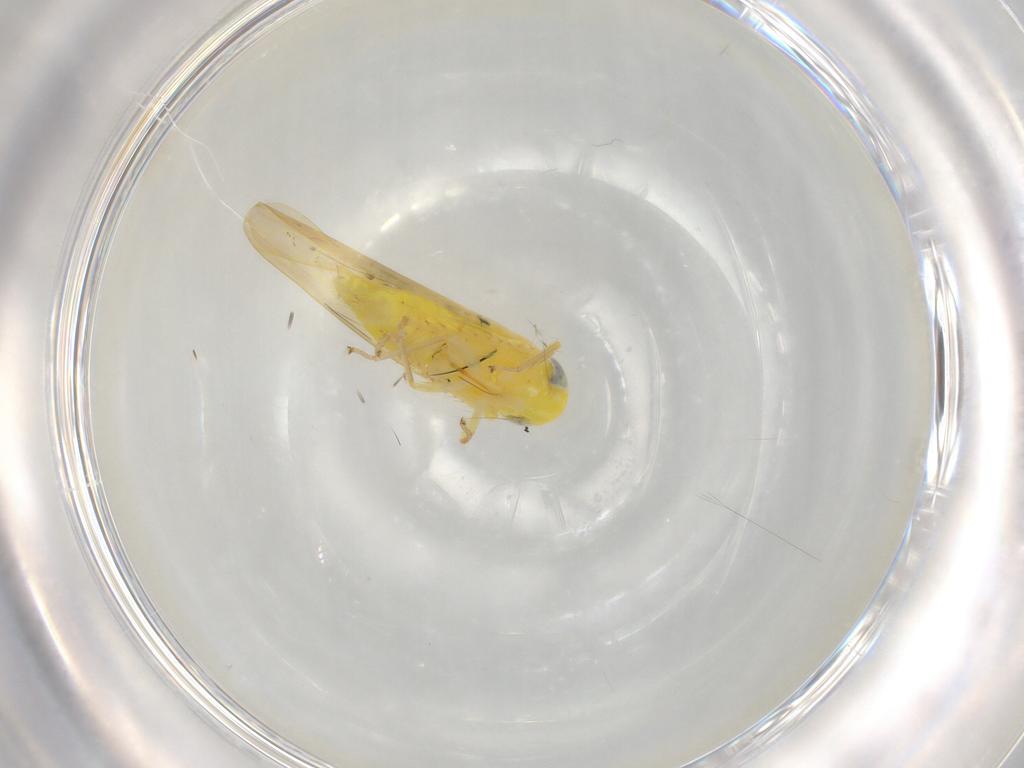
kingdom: Animalia
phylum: Arthropoda
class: Insecta
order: Hemiptera
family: Cicadellidae
